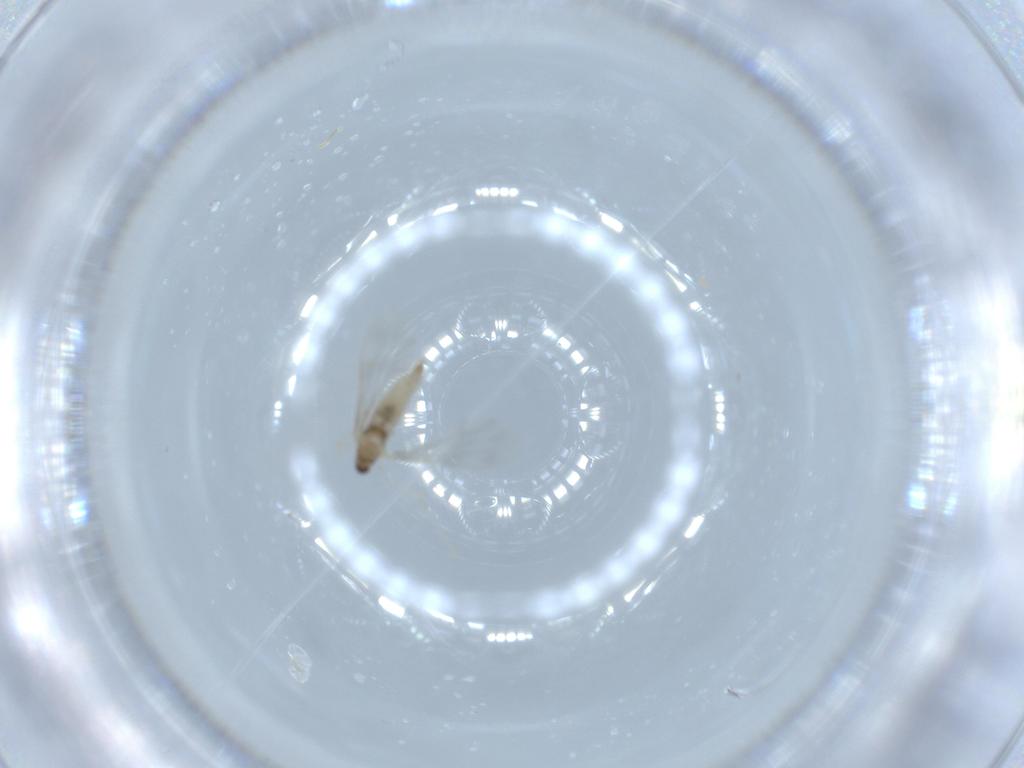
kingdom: Animalia
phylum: Arthropoda
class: Insecta
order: Diptera
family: Cecidomyiidae
